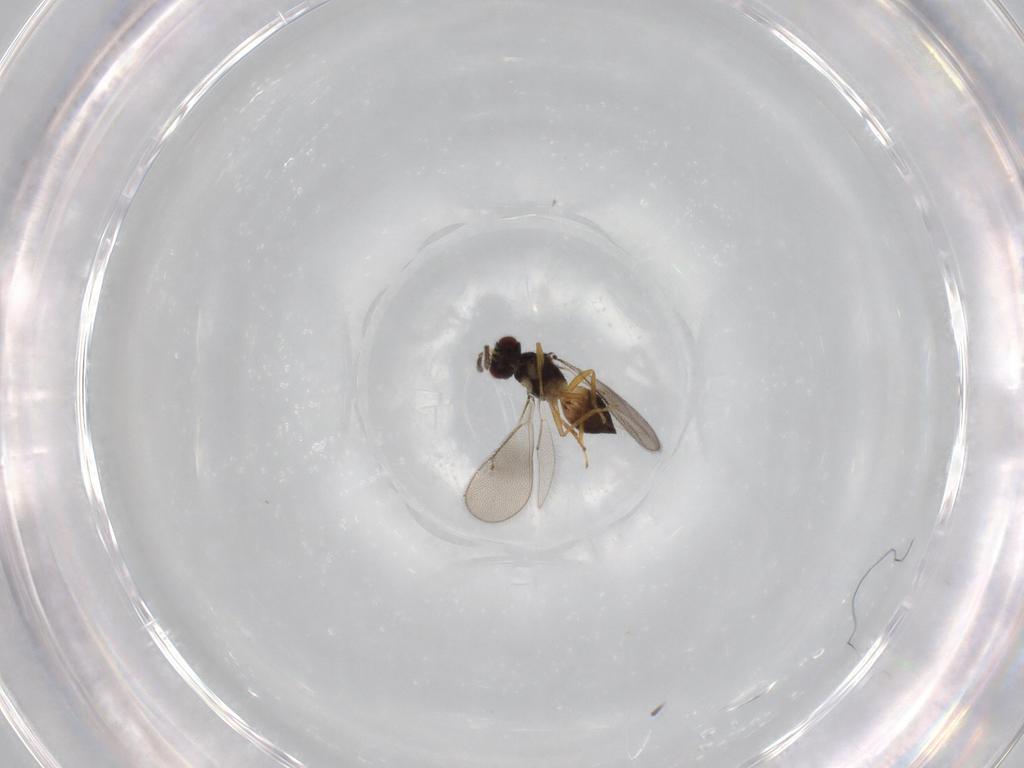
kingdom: Animalia
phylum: Arthropoda
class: Insecta
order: Hymenoptera
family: Eulophidae
